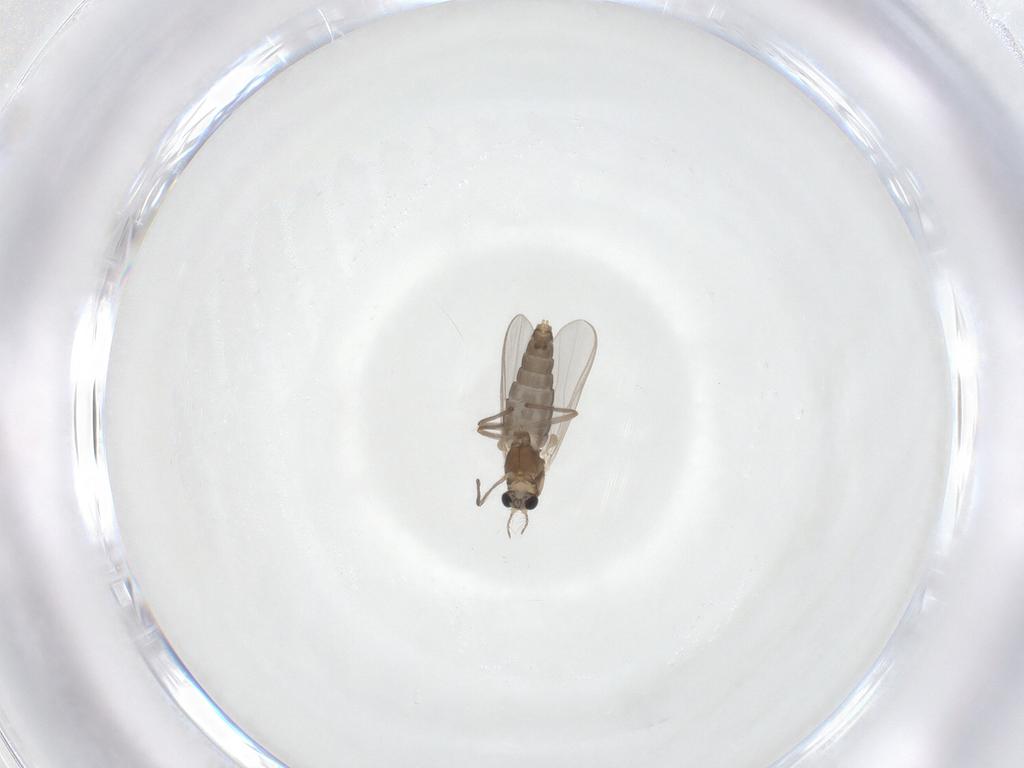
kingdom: Animalia
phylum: Arthropoda
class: Insecta
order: Diptera
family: Chironomidae
